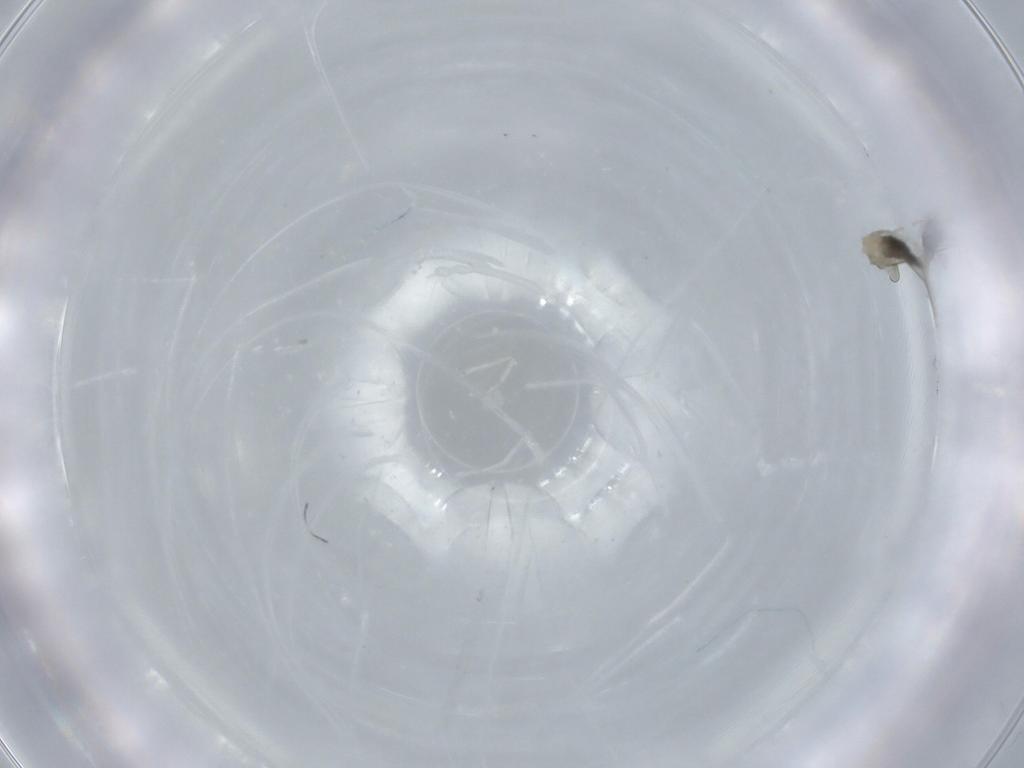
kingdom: Animalia
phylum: Arthropoda
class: Insecta
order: Diptera
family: Cecidomyiidae
